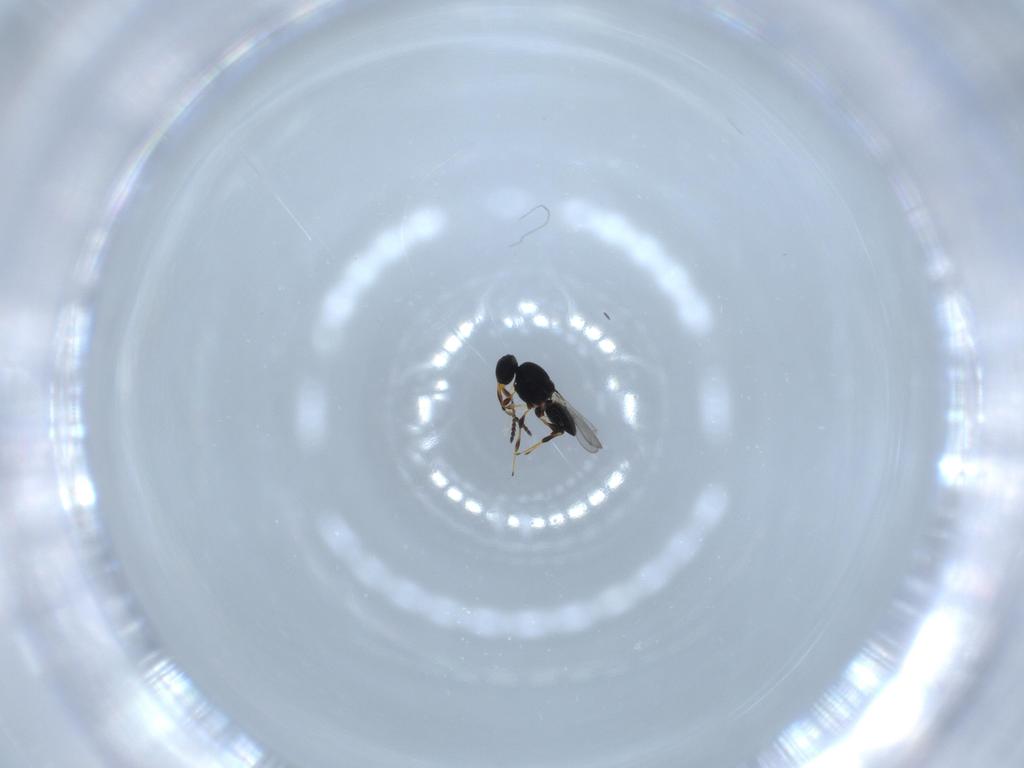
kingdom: Animalia
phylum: Arthropoda
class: Insecta
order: Hymenoptera
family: Platygastridae
